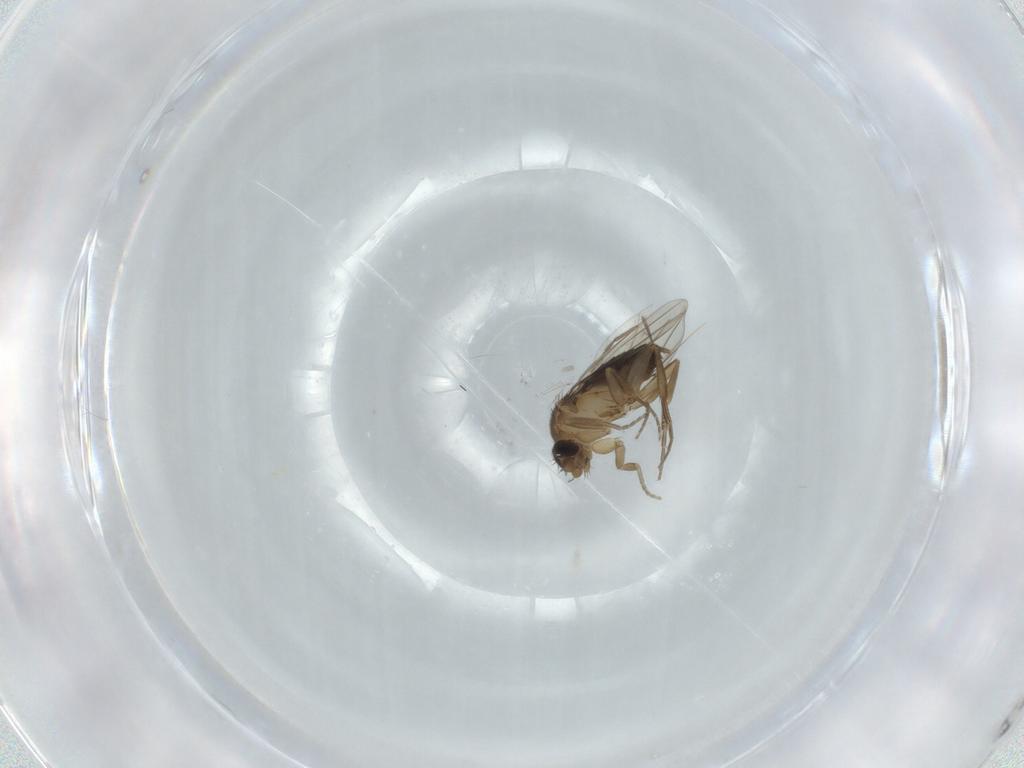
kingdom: Animalia
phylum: Arthropoda
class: Insecta
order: Diptera
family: Phoridae
